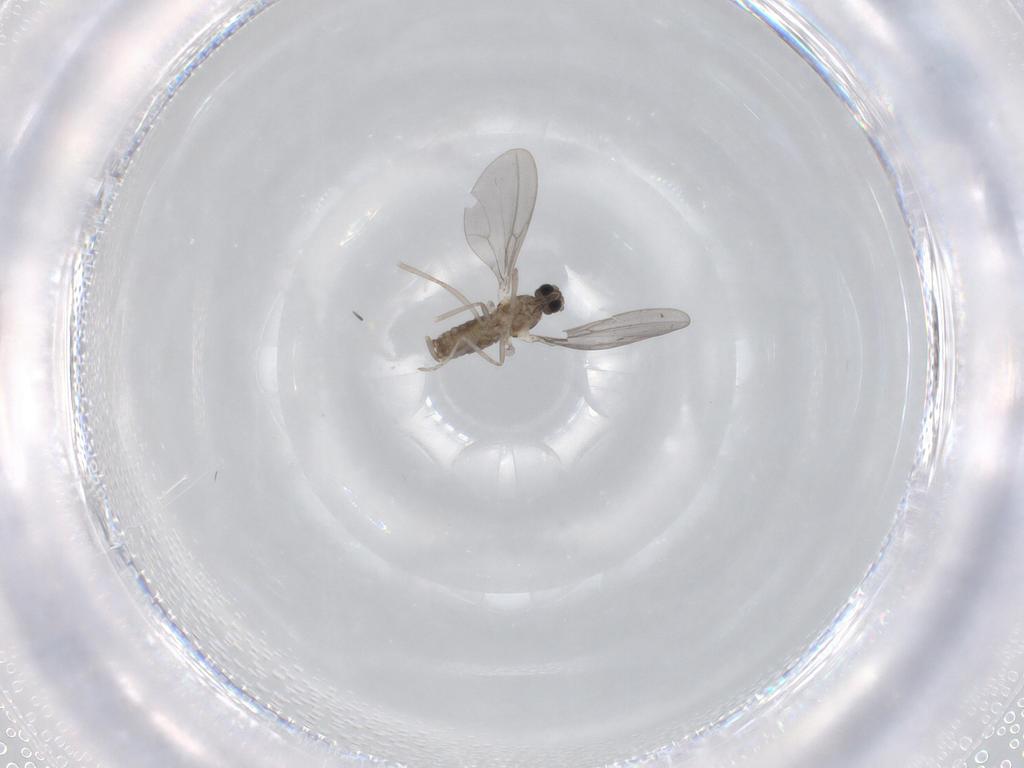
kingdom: Animalia
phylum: Arthropoda
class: Insecta
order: Diptera
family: Cecidomyiidae
